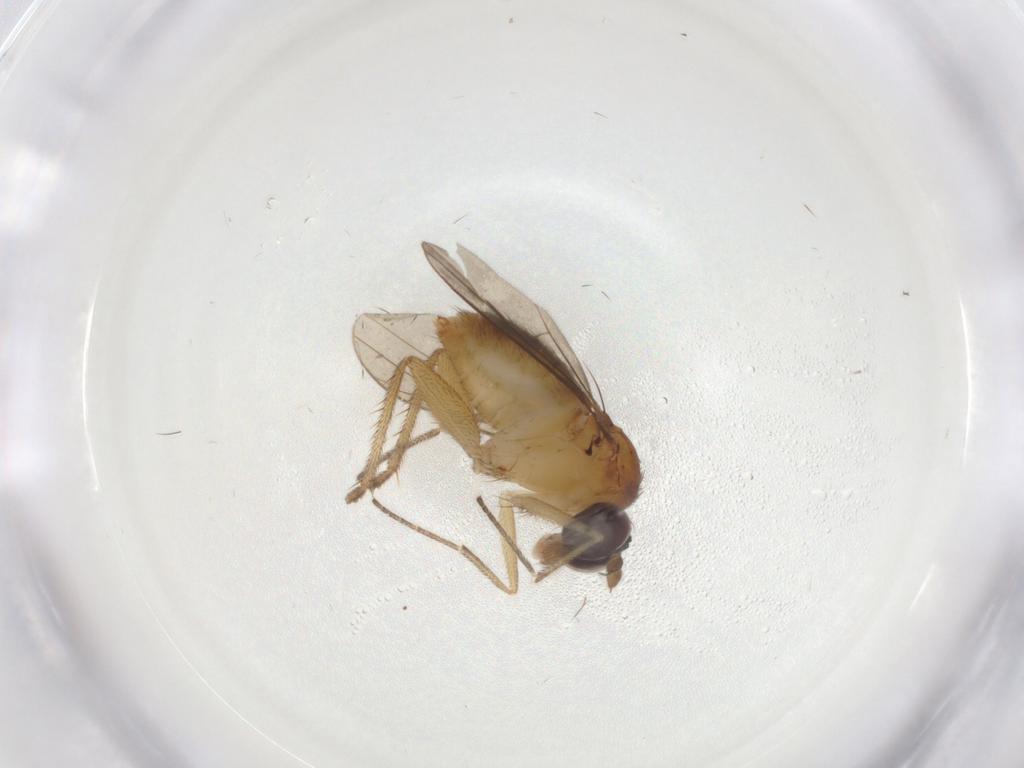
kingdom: Animalia
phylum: Arthropoda
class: Insecta
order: Diptera
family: Dolichopodidae
